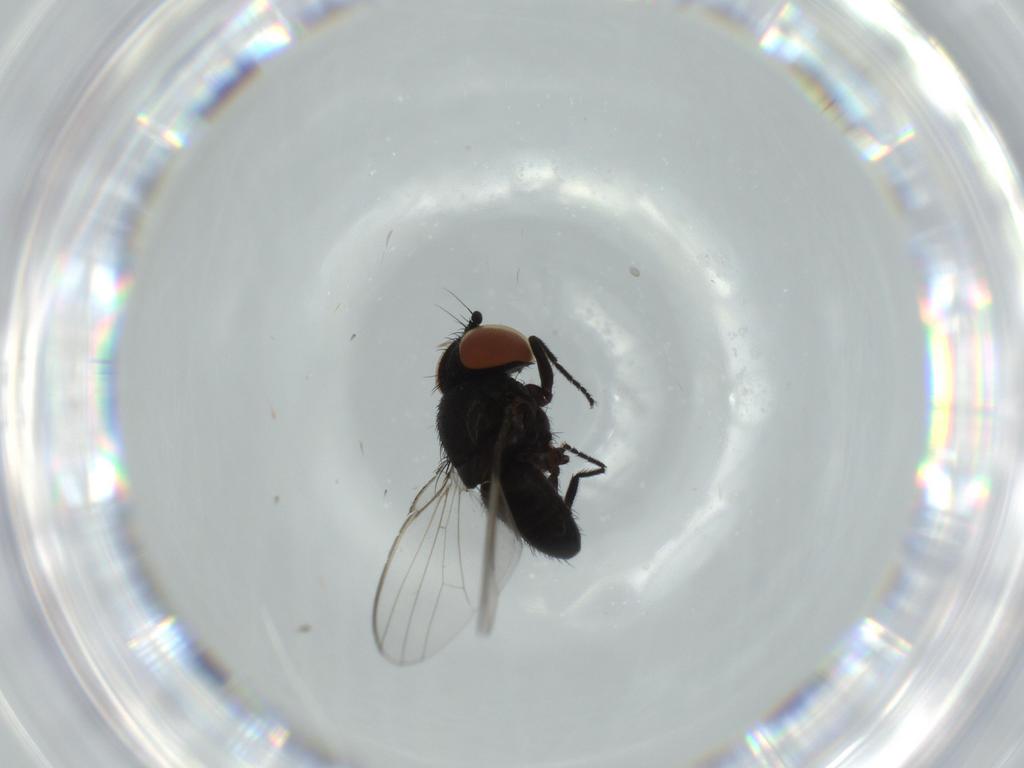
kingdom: Animalia
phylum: Arthropoda
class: Insecta
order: Diptera
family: Milichiidae
